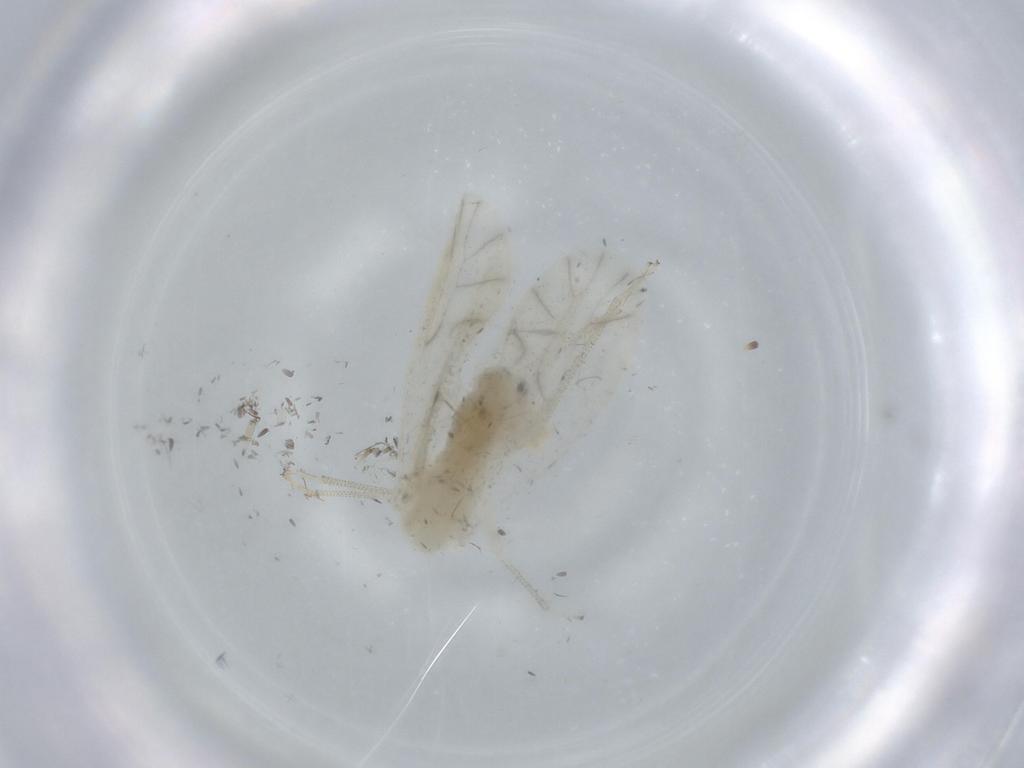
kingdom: Animalia
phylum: Arthropoda
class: Insecta
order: Psocodea
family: Caeciliusidae
